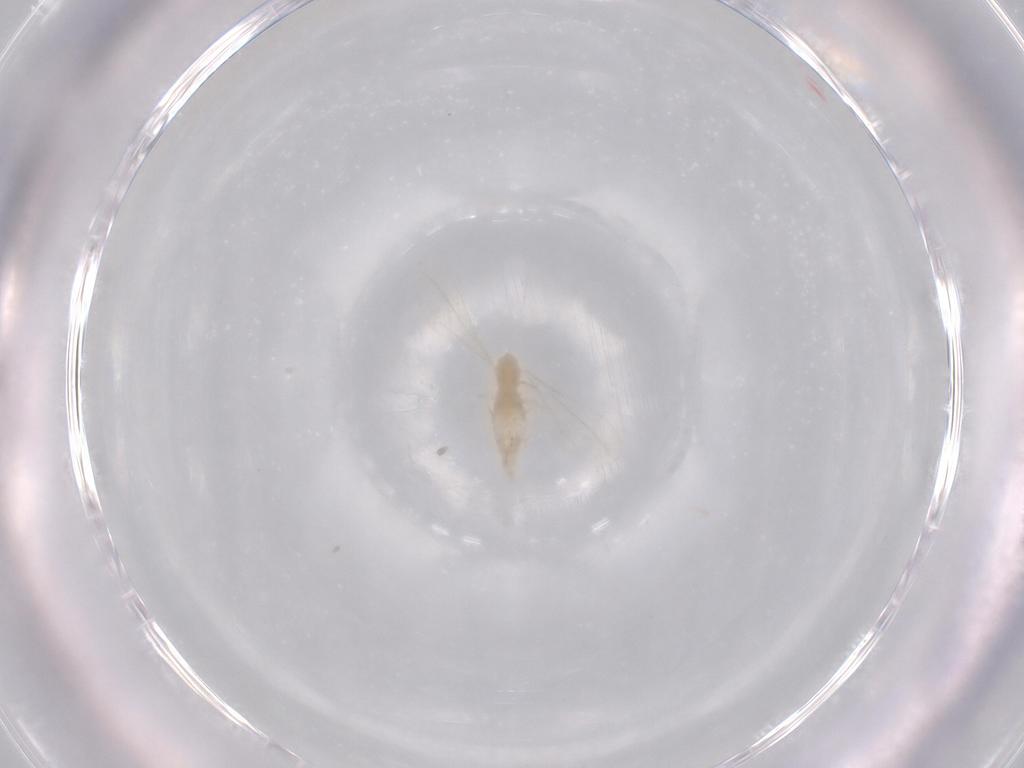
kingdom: Animalia
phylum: Arthropoda
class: Insecta
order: Diptera
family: Cecidomyiidae
